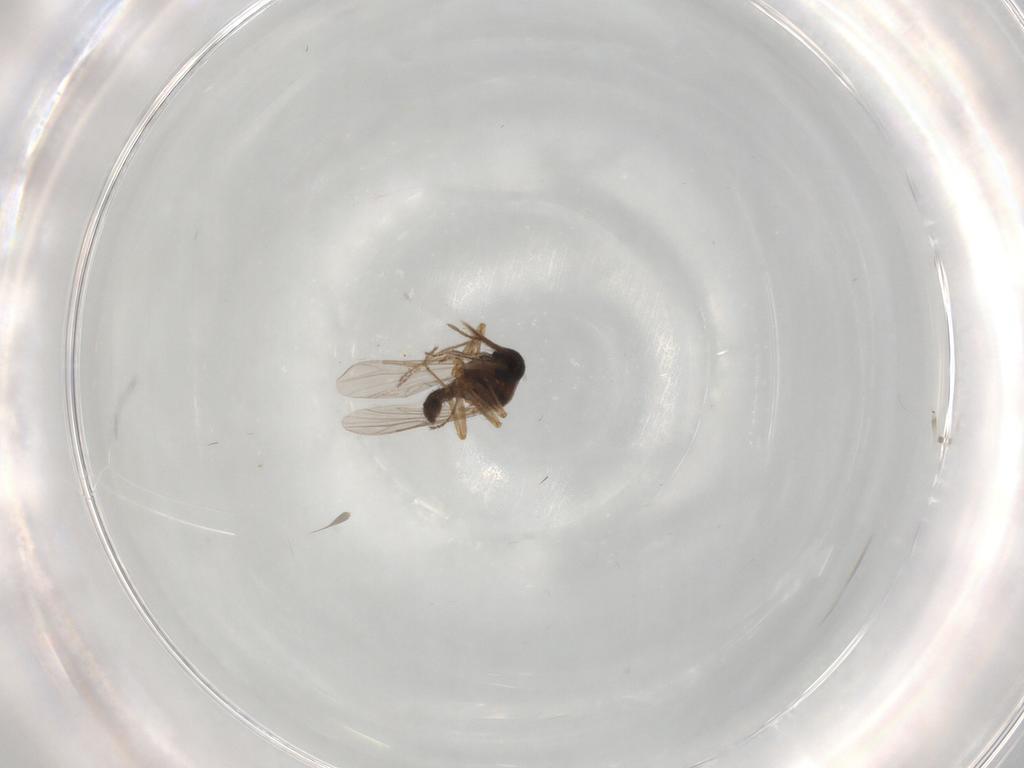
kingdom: Animalia
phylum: Arthropoda
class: Insecta
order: Diptera
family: Ceratopogonidae
